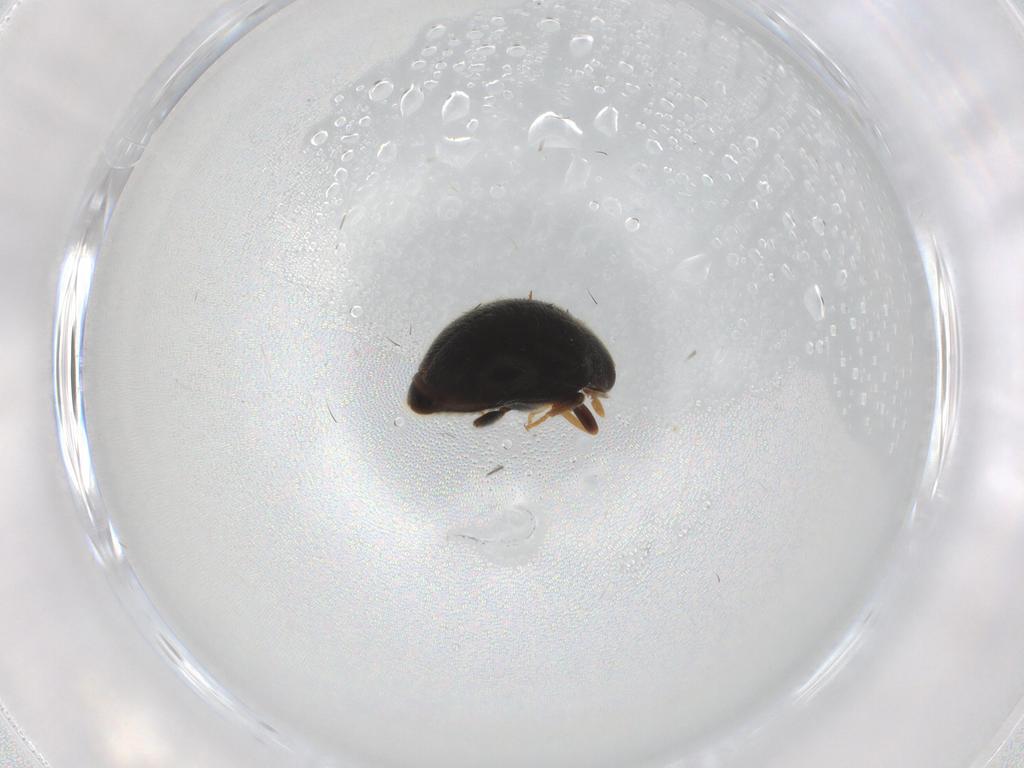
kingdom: Animalia
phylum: Arthropoda
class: Insecta
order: Coleoptera
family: Coccinellidae
